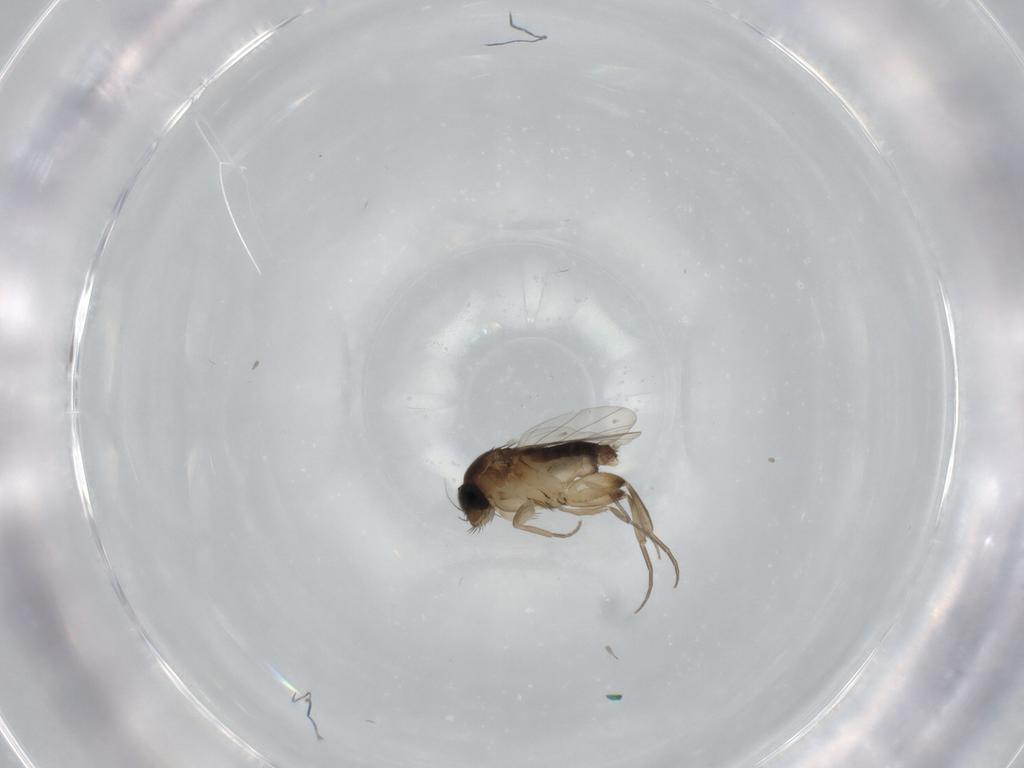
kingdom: Animalia
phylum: Arthropoda
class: Insecta
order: Diptera
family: Phoridae
